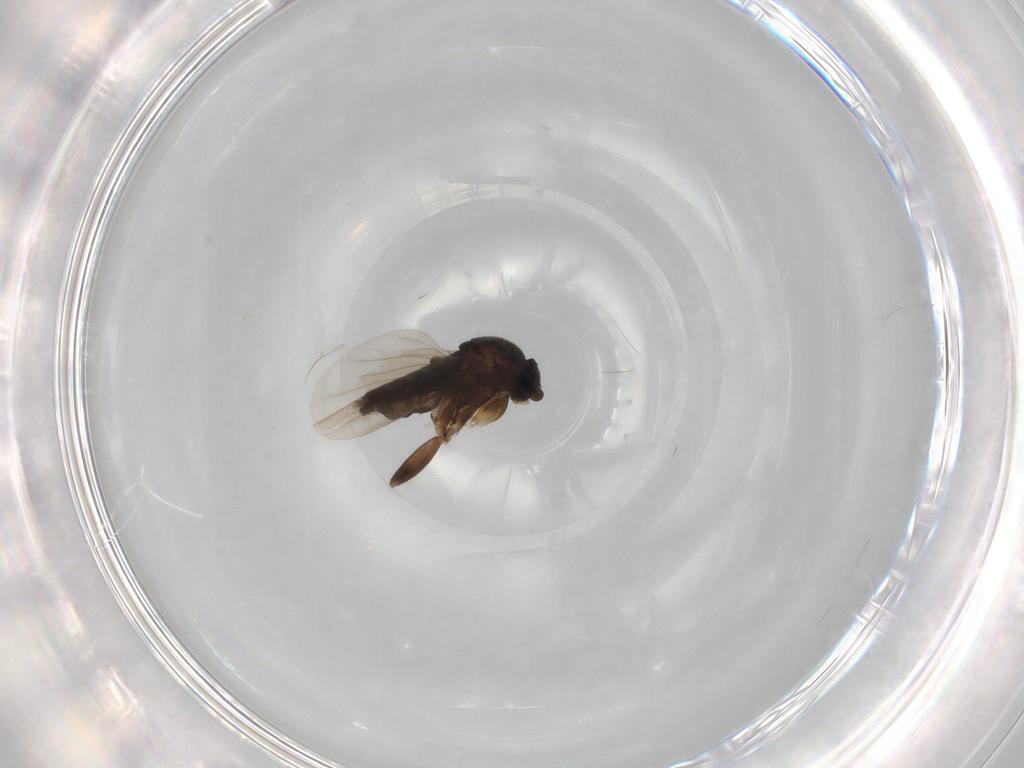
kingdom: Animalia
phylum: Arthropoda
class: Insecta
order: Diptera
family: Phoridae
